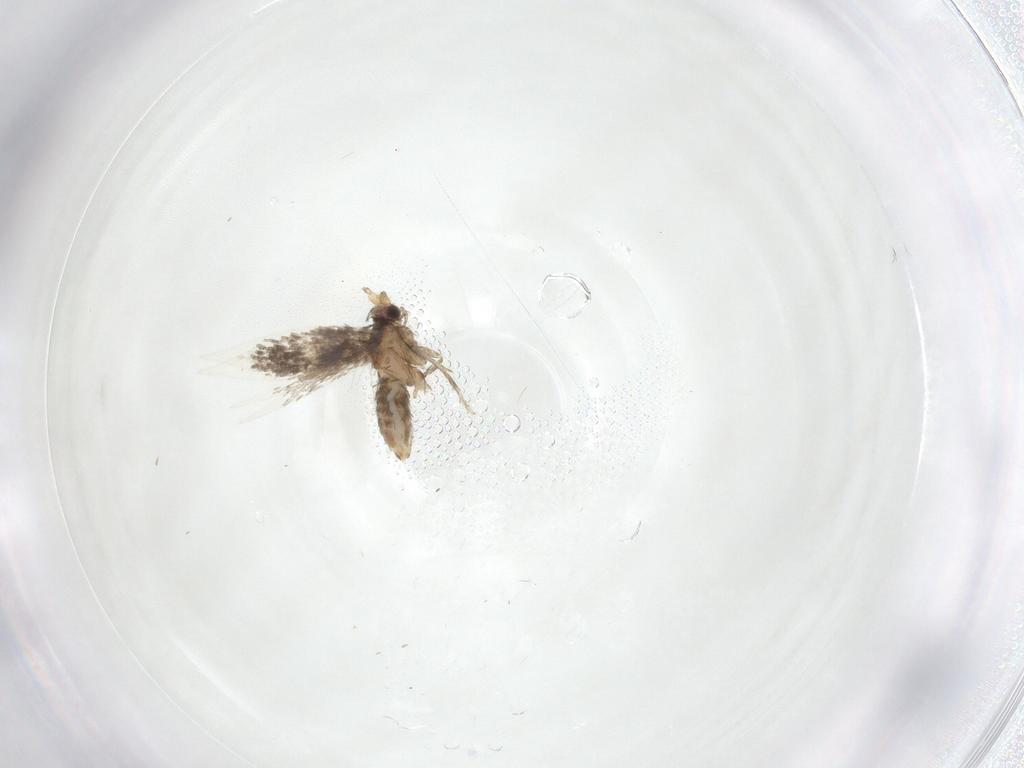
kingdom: Animalia
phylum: Arthropoda
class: Insecta
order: Lepidoptera
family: Nepticulidae
